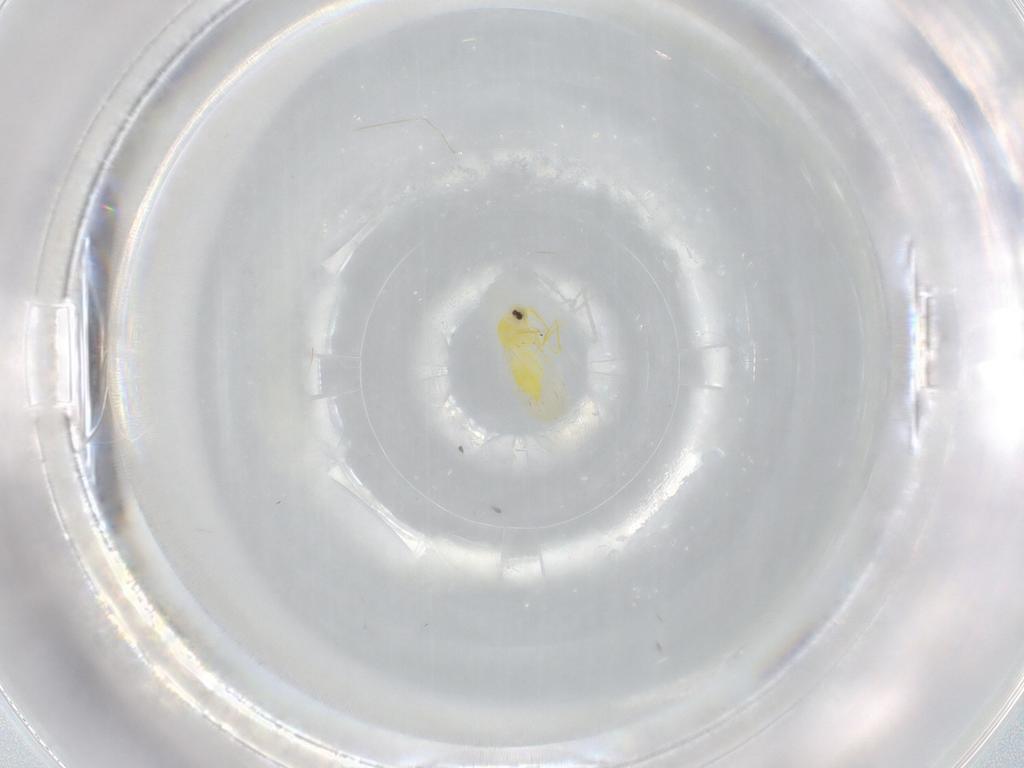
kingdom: Animalia
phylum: Arthropoda
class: Insecta
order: Hemiptera
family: Aleyrodidae
